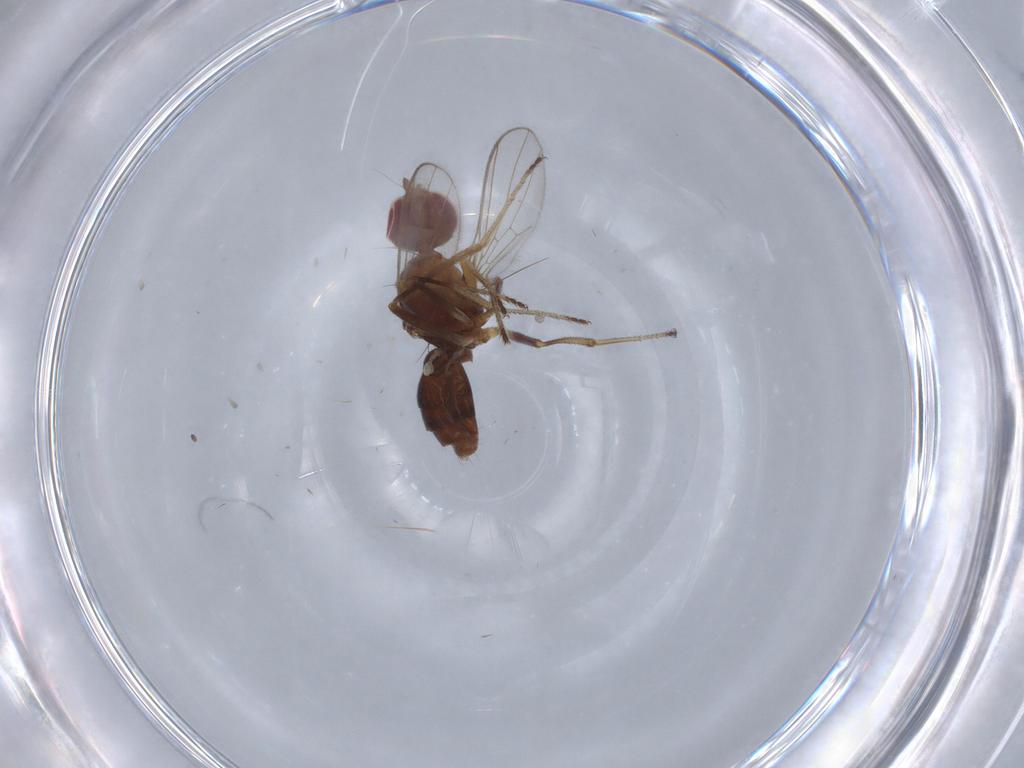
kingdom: Animalia
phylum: Arthropoda
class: Insecta
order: Diptera
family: Sepsidae
